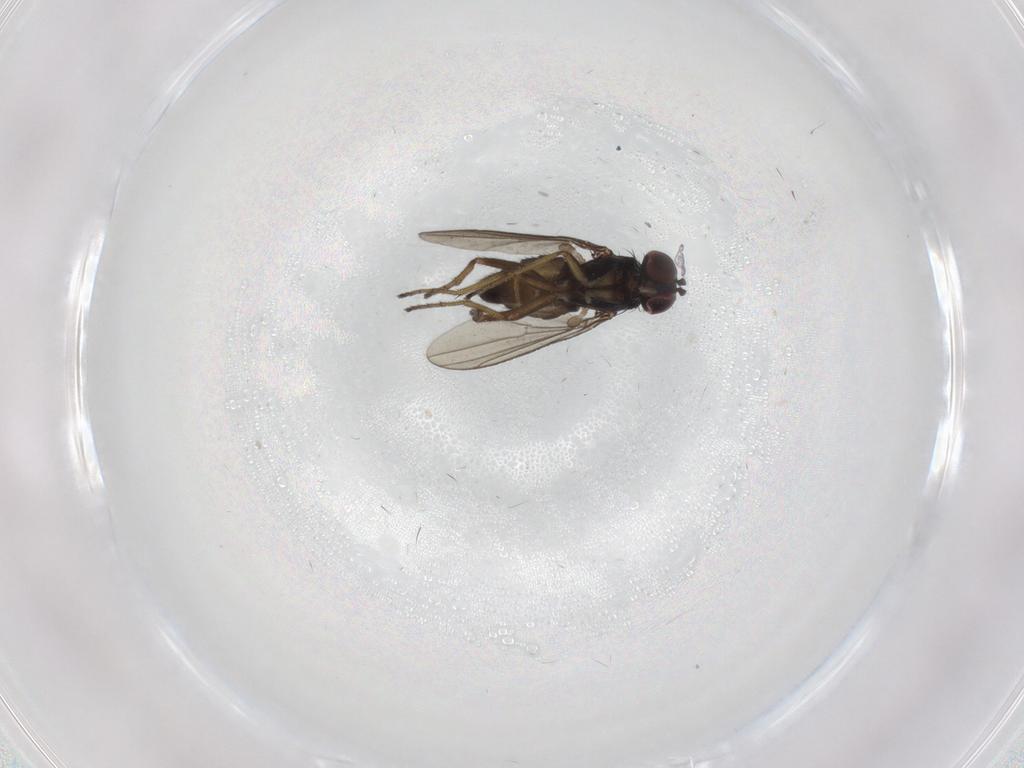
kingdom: Animalia
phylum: Arthropoda
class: Insecta
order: Diptera
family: Dolichopodidae
